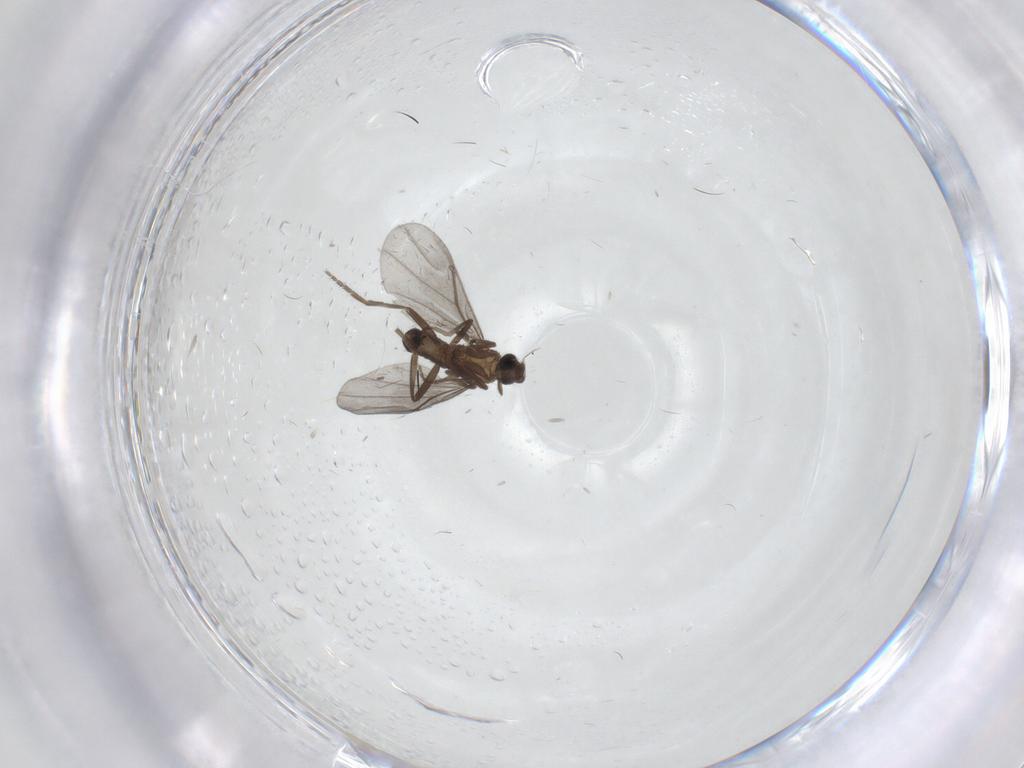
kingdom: Animalia
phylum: Arthropoda
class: Insecta
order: Diptera
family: Phoridae
